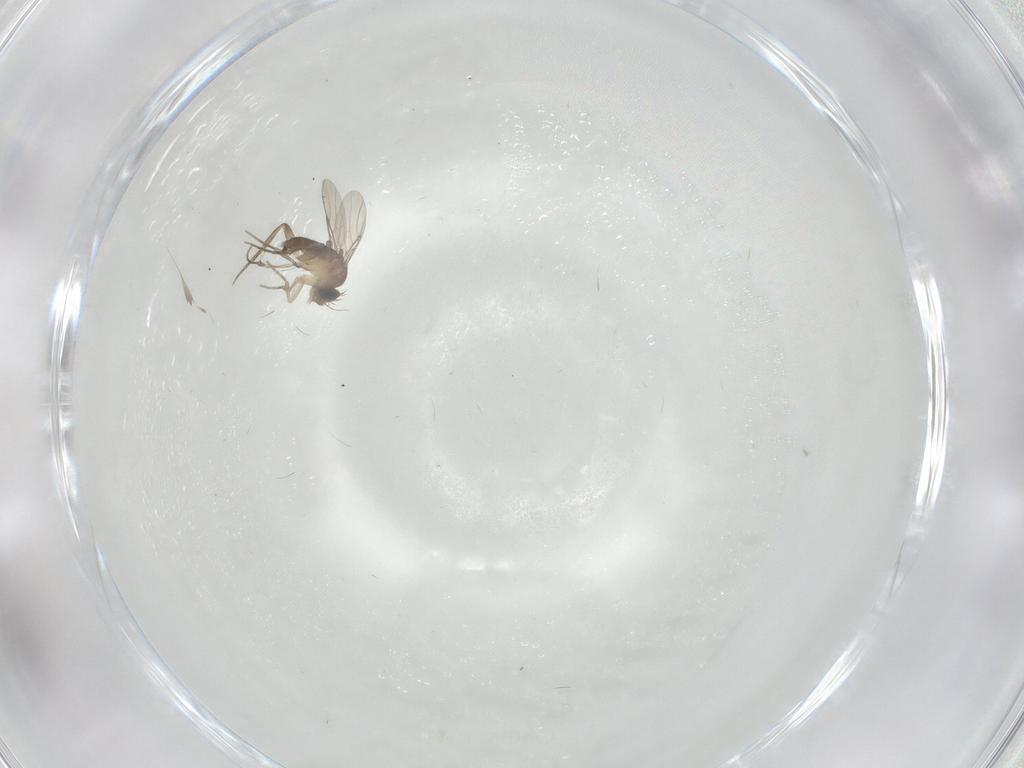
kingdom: Animalia
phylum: Arthropoda
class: Insecta
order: Diptera
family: Phoridae
